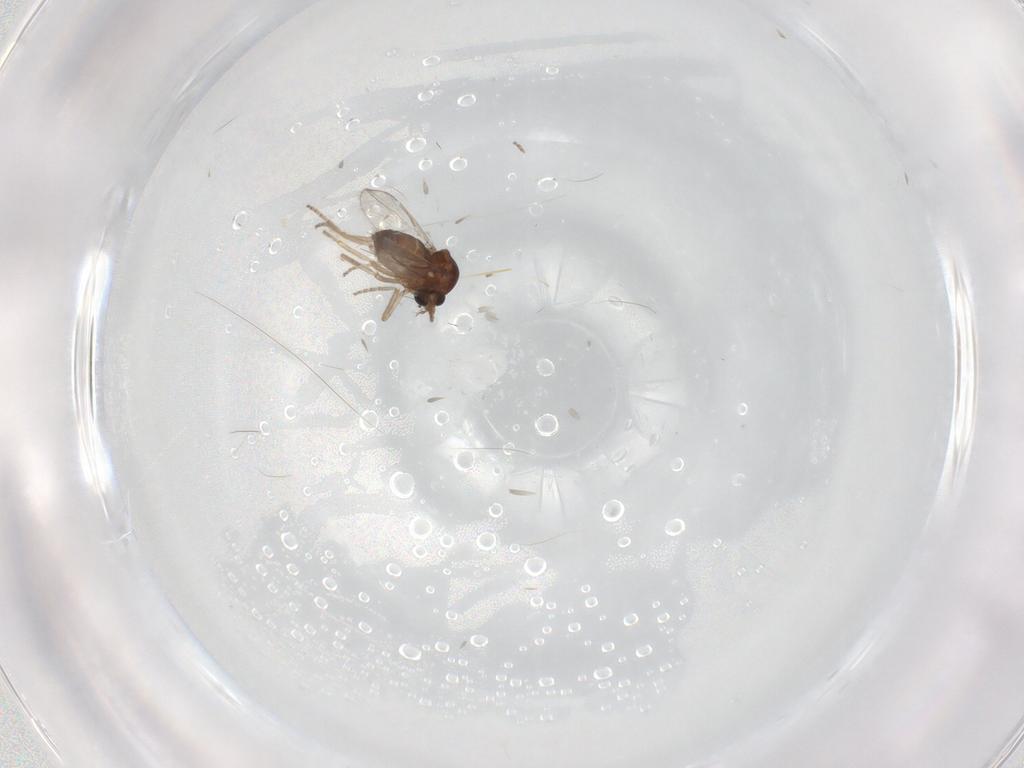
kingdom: Animalia
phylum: Arthropoda
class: Insecta
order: Diptera
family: Ceratopogonidae
